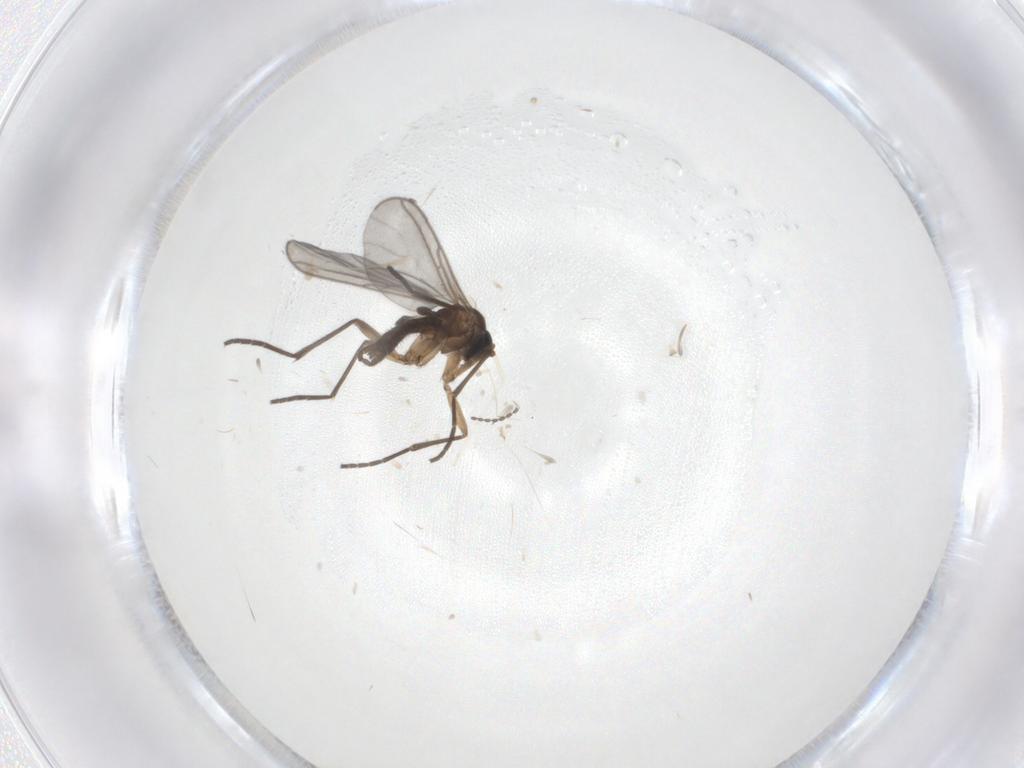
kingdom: Animalia
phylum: Arthropoda
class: Insecta
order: Diptera
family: Sciaridae
